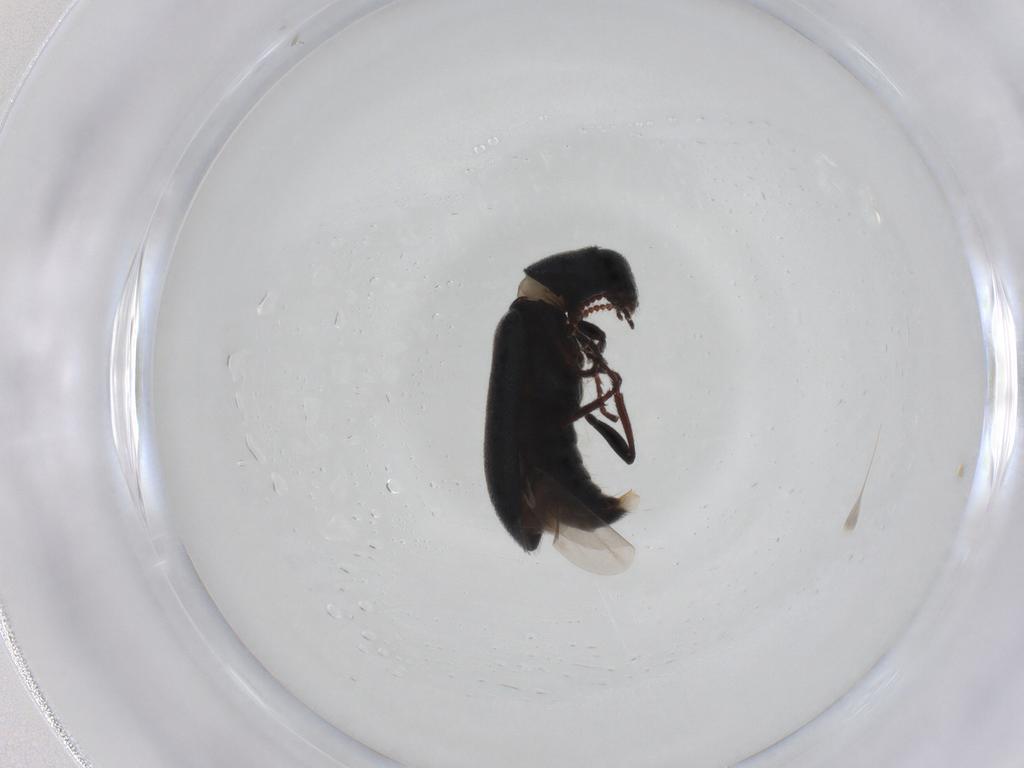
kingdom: Animalia
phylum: Arthropoda
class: Insecta
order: Coleoptera
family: Melyridae
